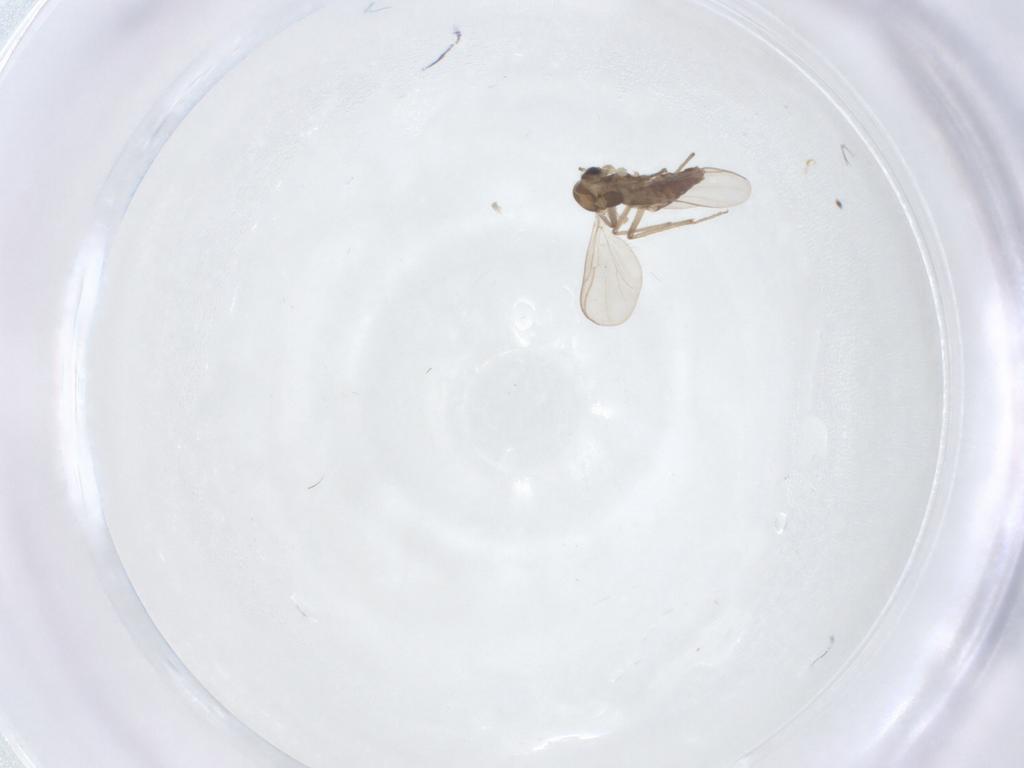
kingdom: Animalia
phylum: Arthropoda
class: Insecta
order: Diptera
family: Chironomidae
